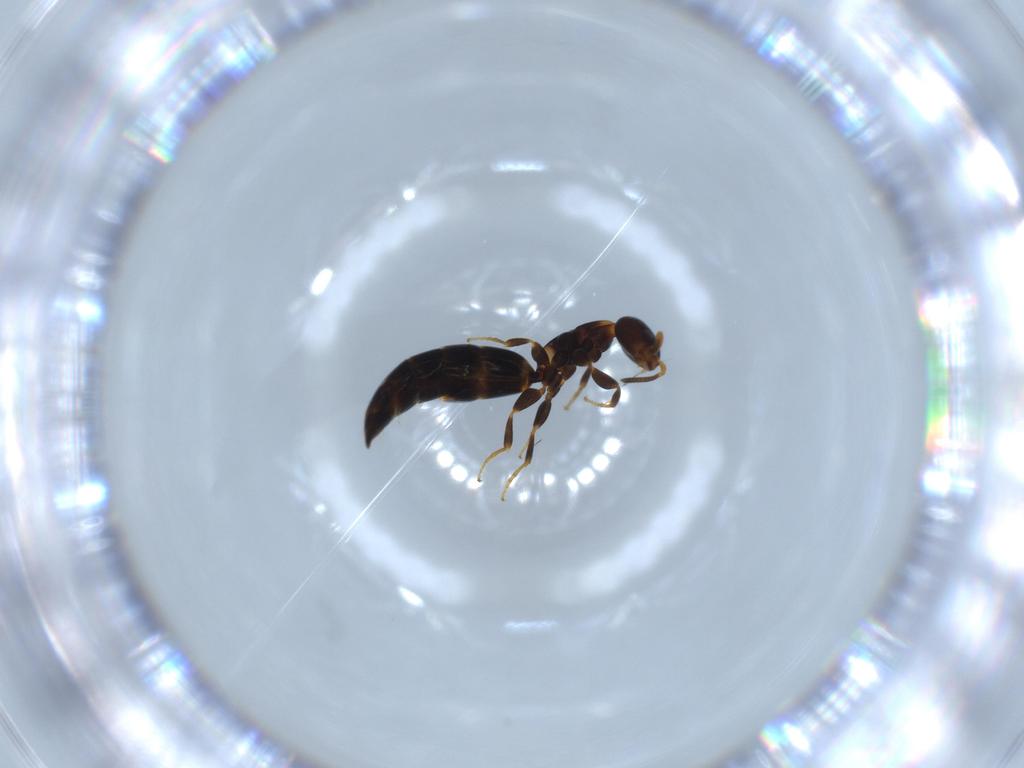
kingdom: Animalia
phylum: Arthropoda
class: Insecta
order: Hymenoptera
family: Bethylidae
